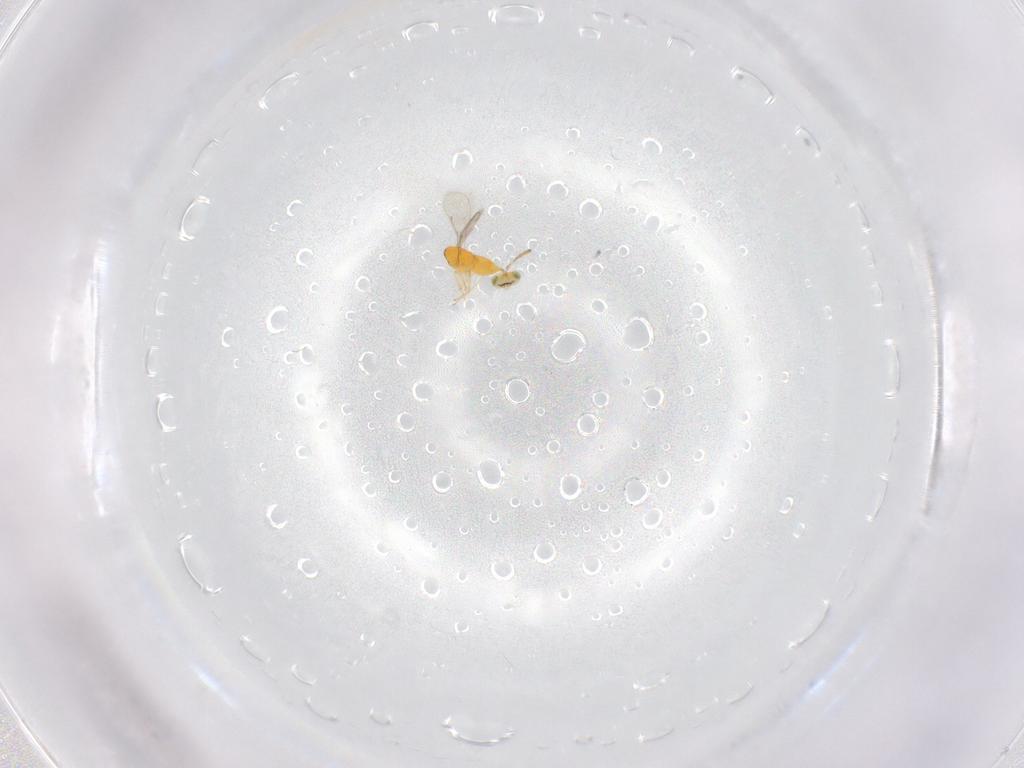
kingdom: Animalia
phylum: Arthropoda
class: Insecta
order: Hymenoptera
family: Aphelinidae
